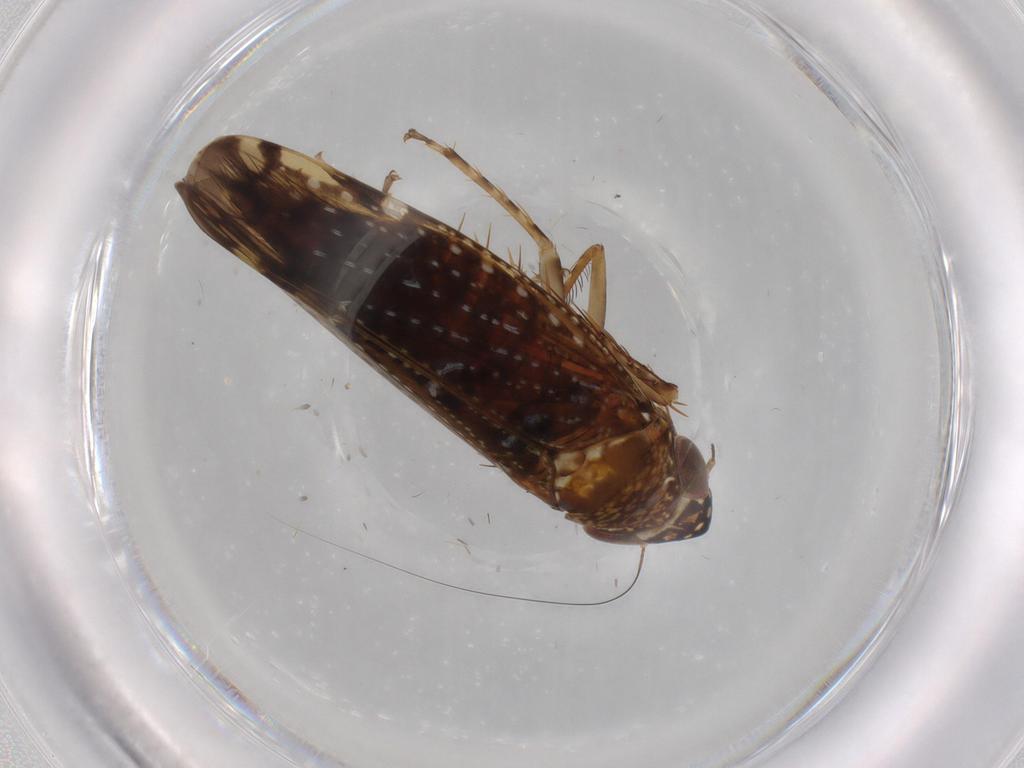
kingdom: Animalia
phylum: Arthropoda
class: Insecta
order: Hemiptera
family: Cicadellidae
